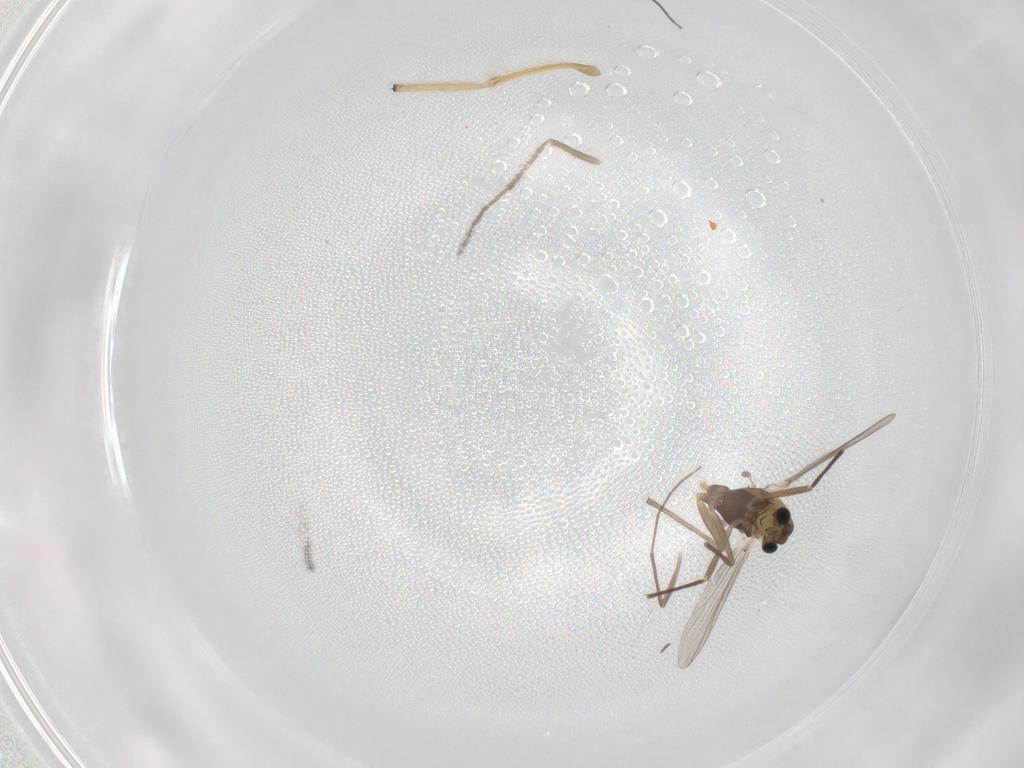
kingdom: Animalia
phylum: Arthropoda
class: Insecta
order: Diptera
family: Chironomidae
